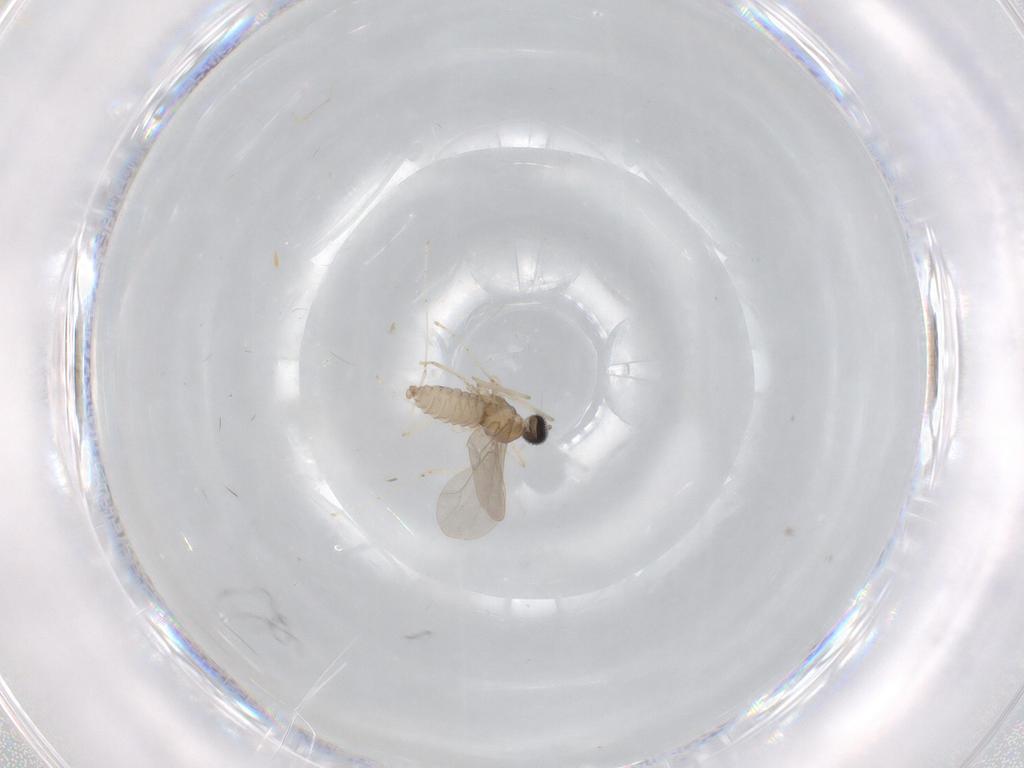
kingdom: Animalia
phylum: Arthropoda
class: Insecta
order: Diptera
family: Cecidomyiidae
